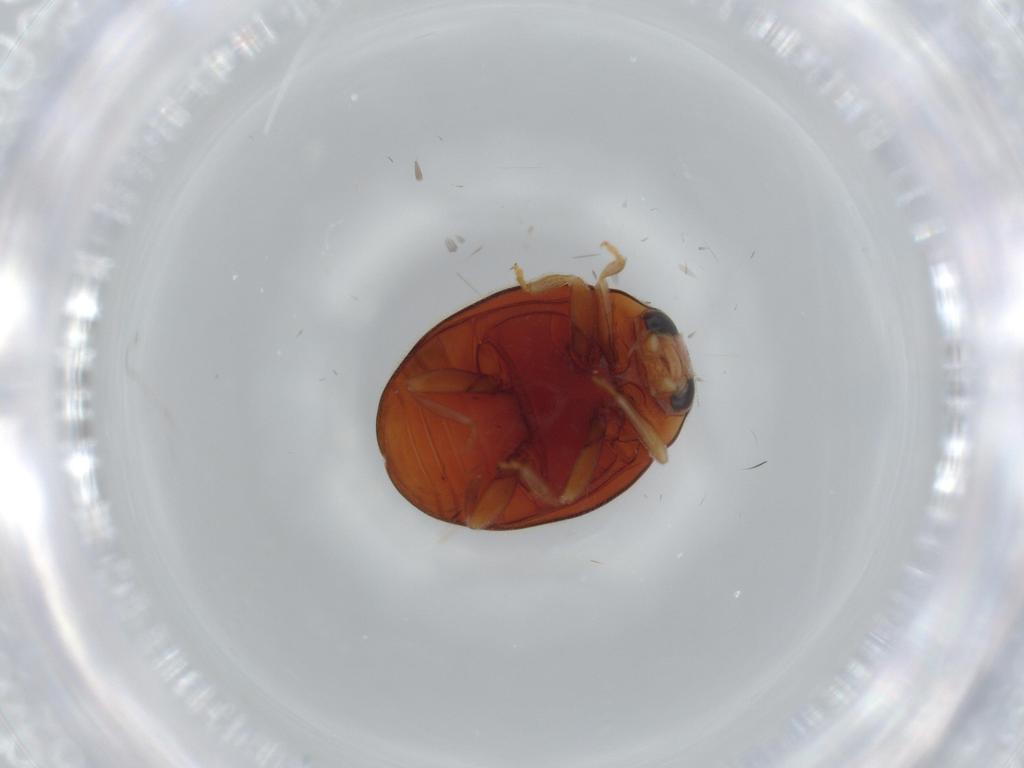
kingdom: Animalia
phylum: Arthropoda
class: Insecta
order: Coleoptera
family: Coccinellidae
